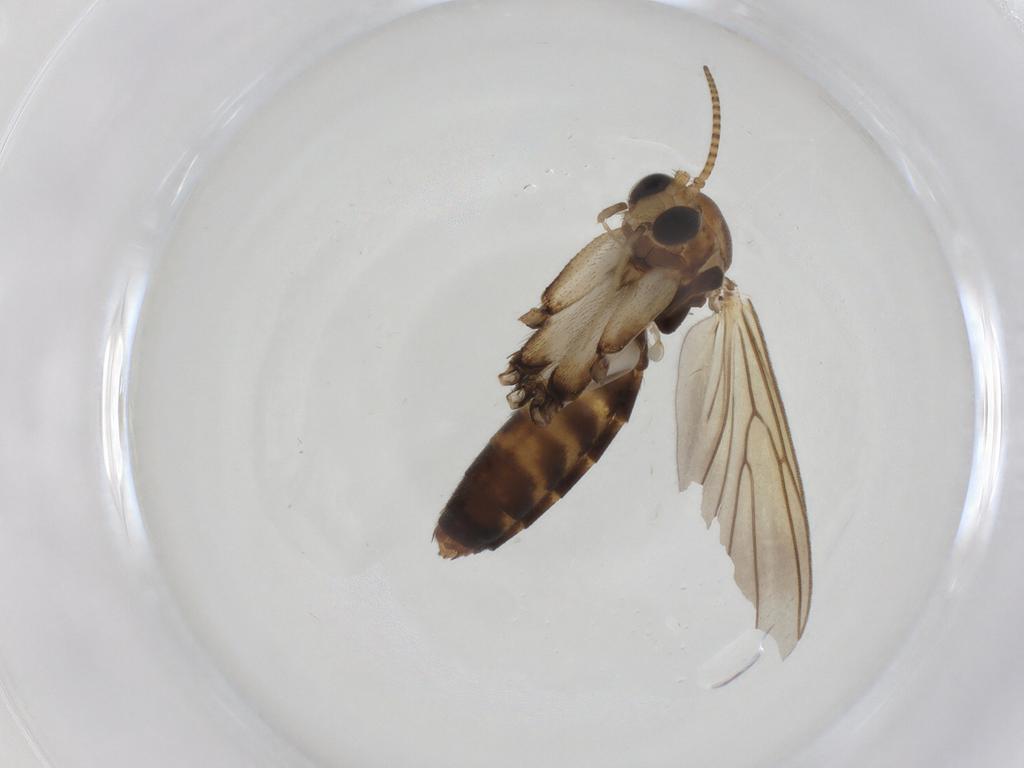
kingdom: Animalia
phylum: Arthropoda
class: Insecta
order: Diptera
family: Mycetophilidae
